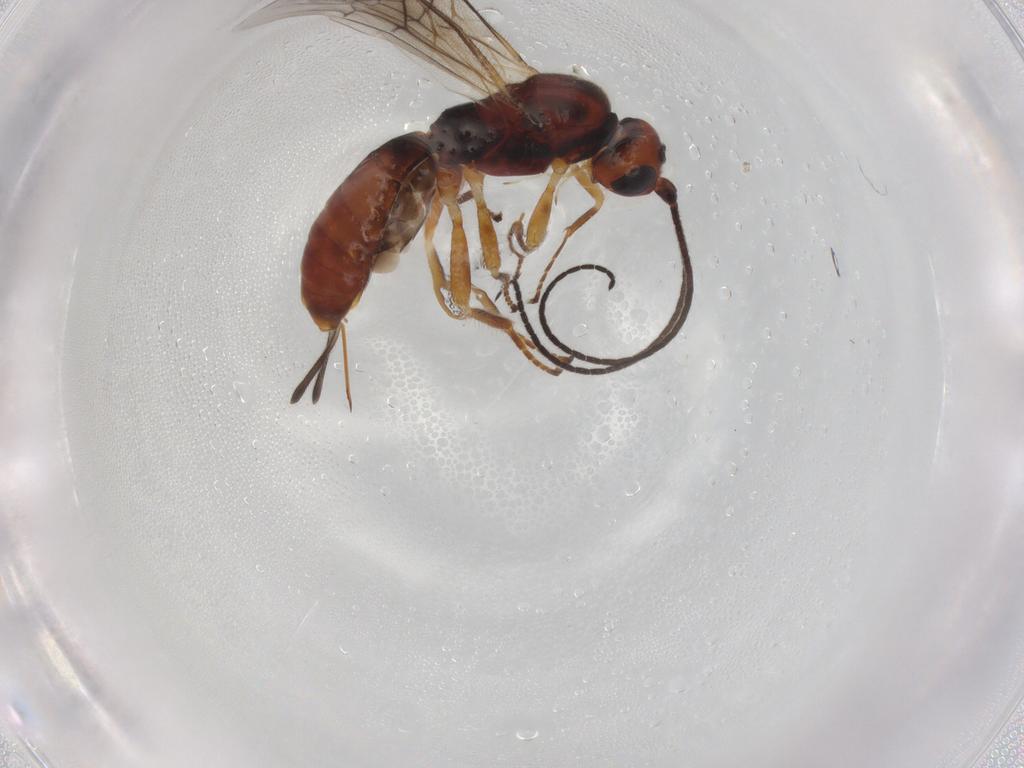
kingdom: Animalia
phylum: Arthropoda
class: Insecta
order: Hymenoptera
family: Braconidae
